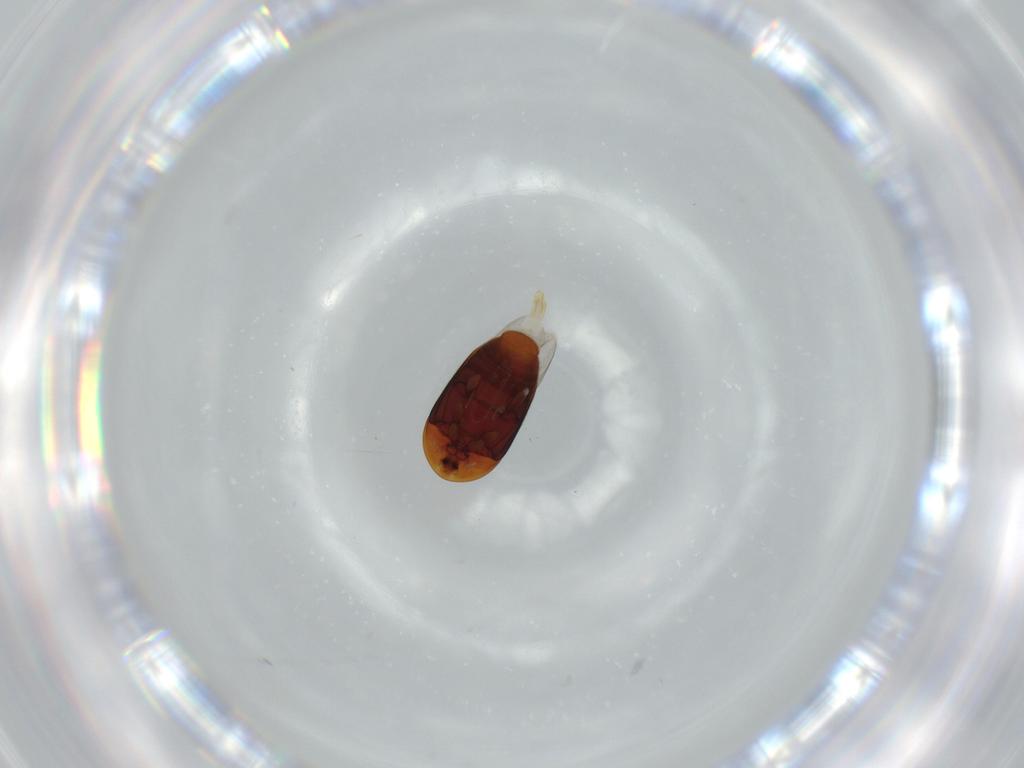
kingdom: Animalia
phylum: Arthropoda
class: Insecta
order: Coleoptera
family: Corylophidae
